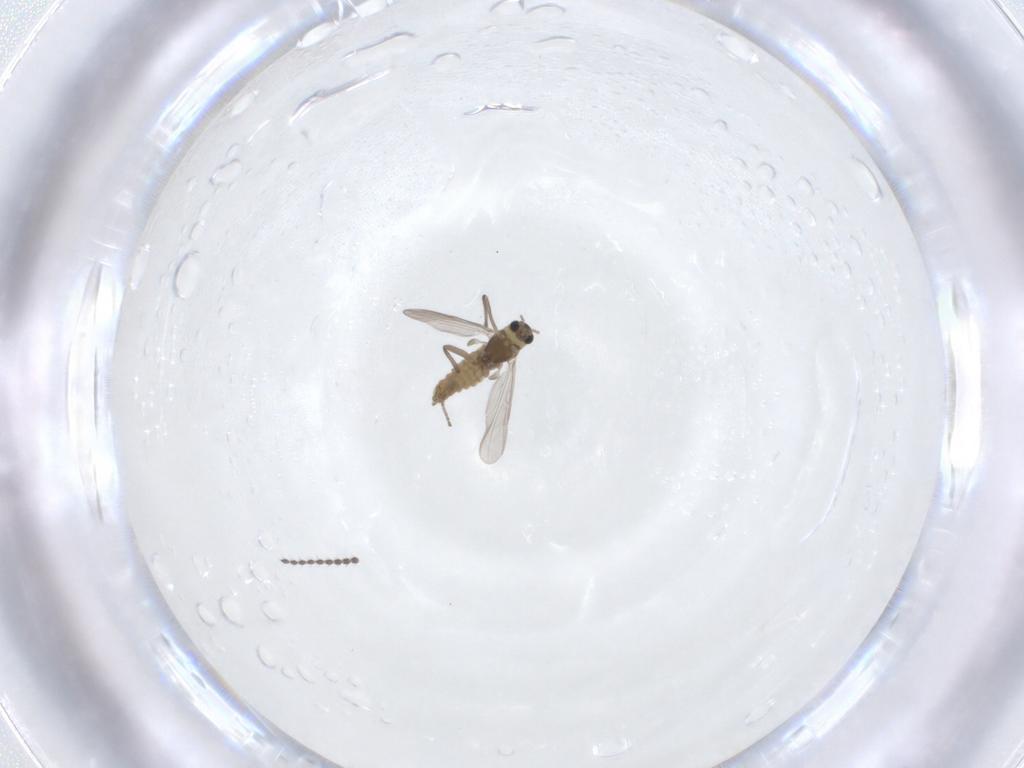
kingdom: Animalia
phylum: Arthropoda
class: Insecta
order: Diptera
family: Chironomidae
